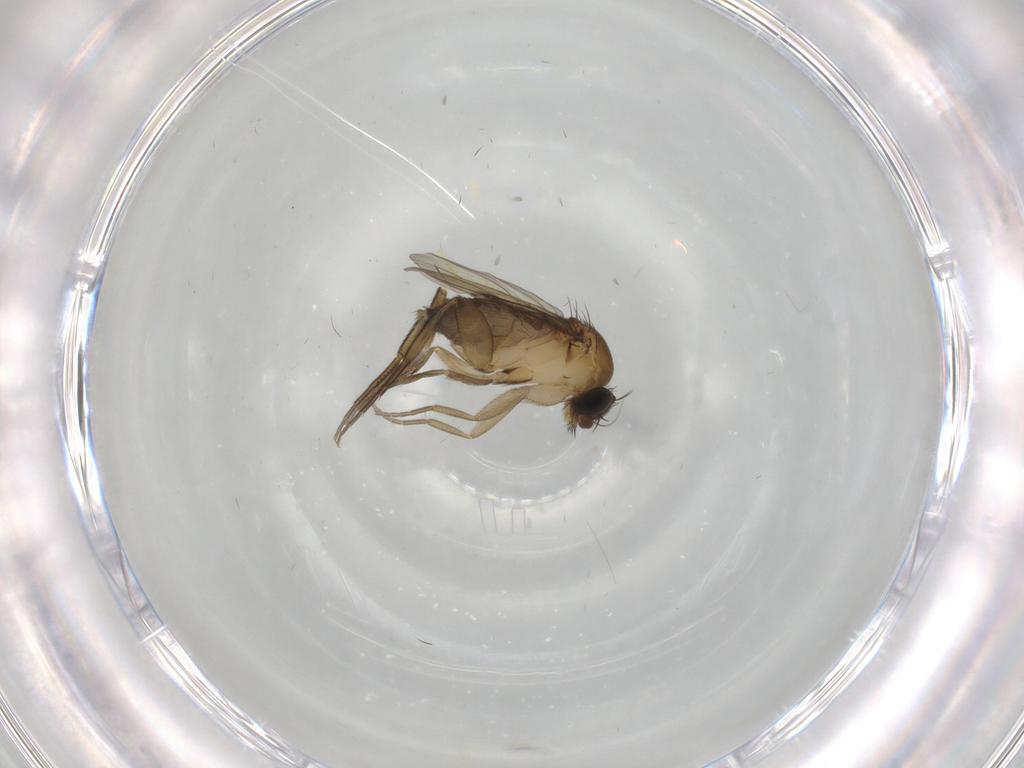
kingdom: Animalia
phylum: Arthropoda
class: Insecta
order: Diptera
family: Phoridae
